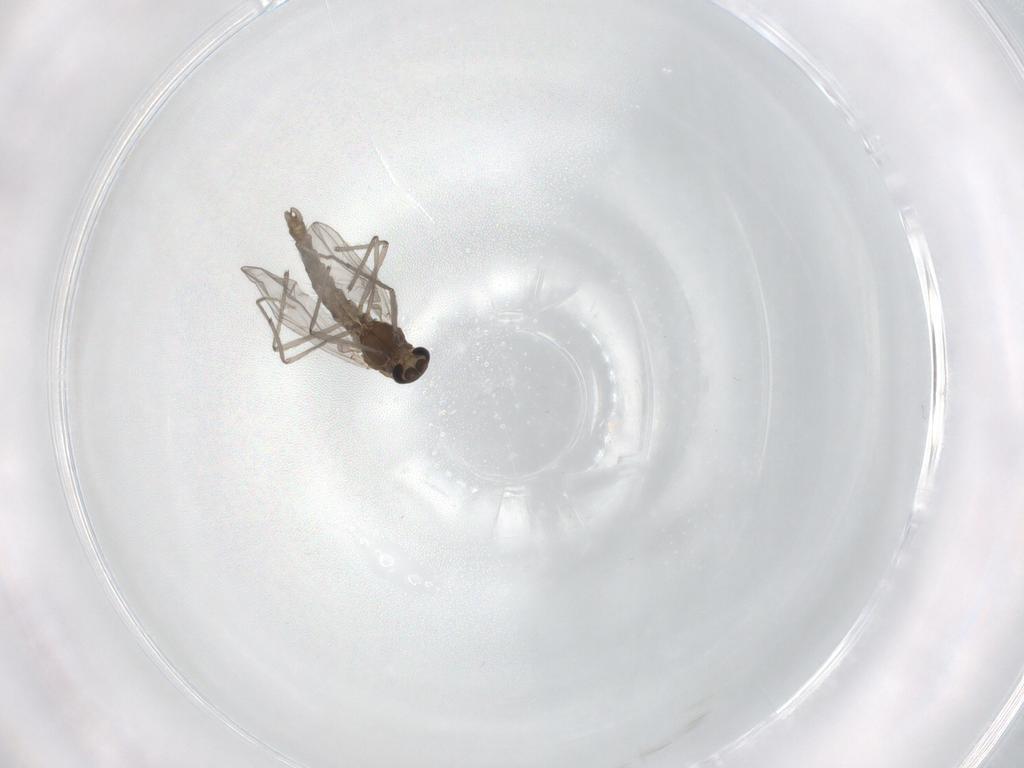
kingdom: Animalia
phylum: Arthropoda
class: Insecta
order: Diptera
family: Chironomidae
